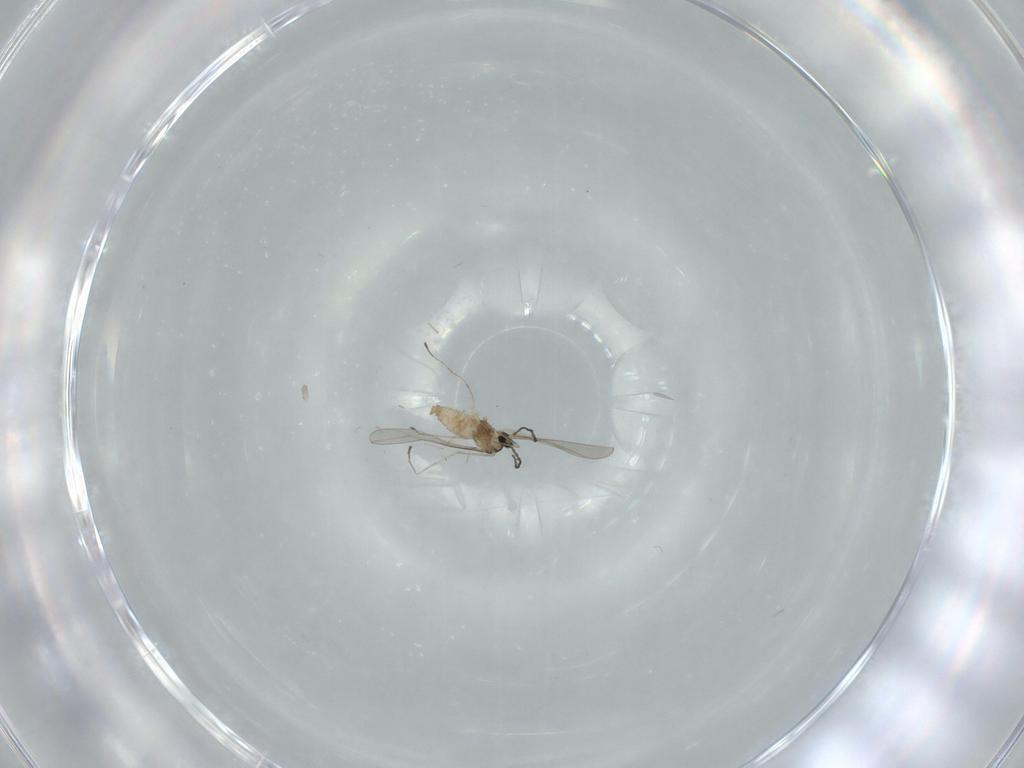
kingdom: Animalia
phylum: Arthropoda
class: Insecta
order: Diptera
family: Cecidomyiidae
